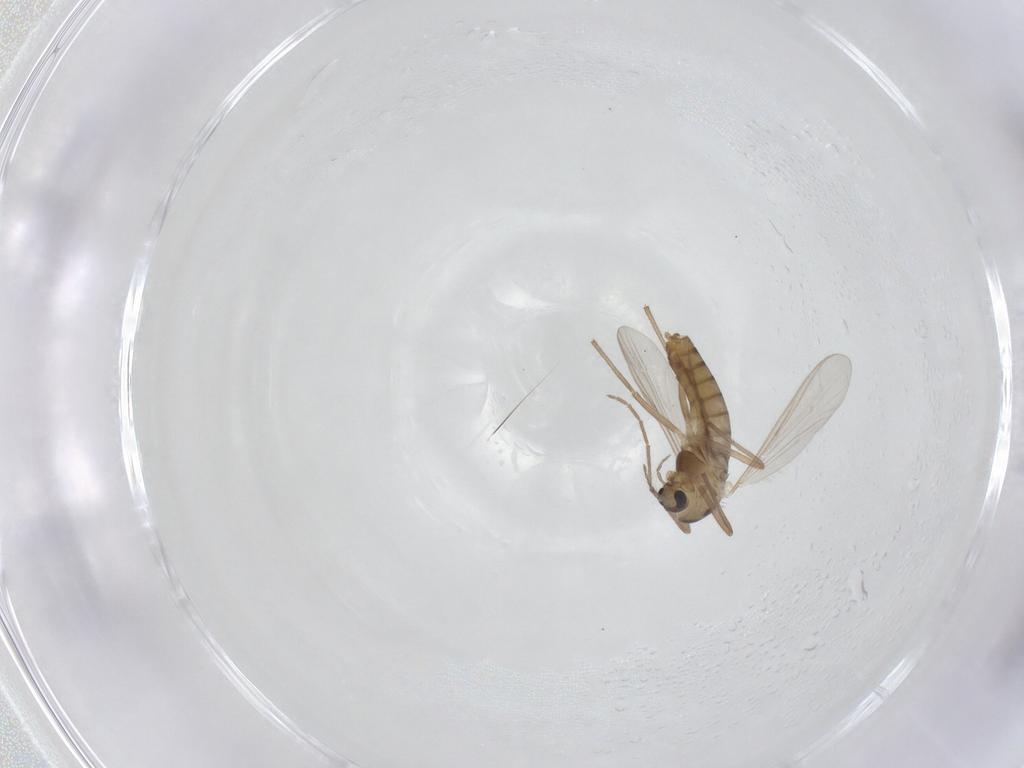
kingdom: Animalia
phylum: Arthropoda
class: Insecta
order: Diptera
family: Chironomidae
